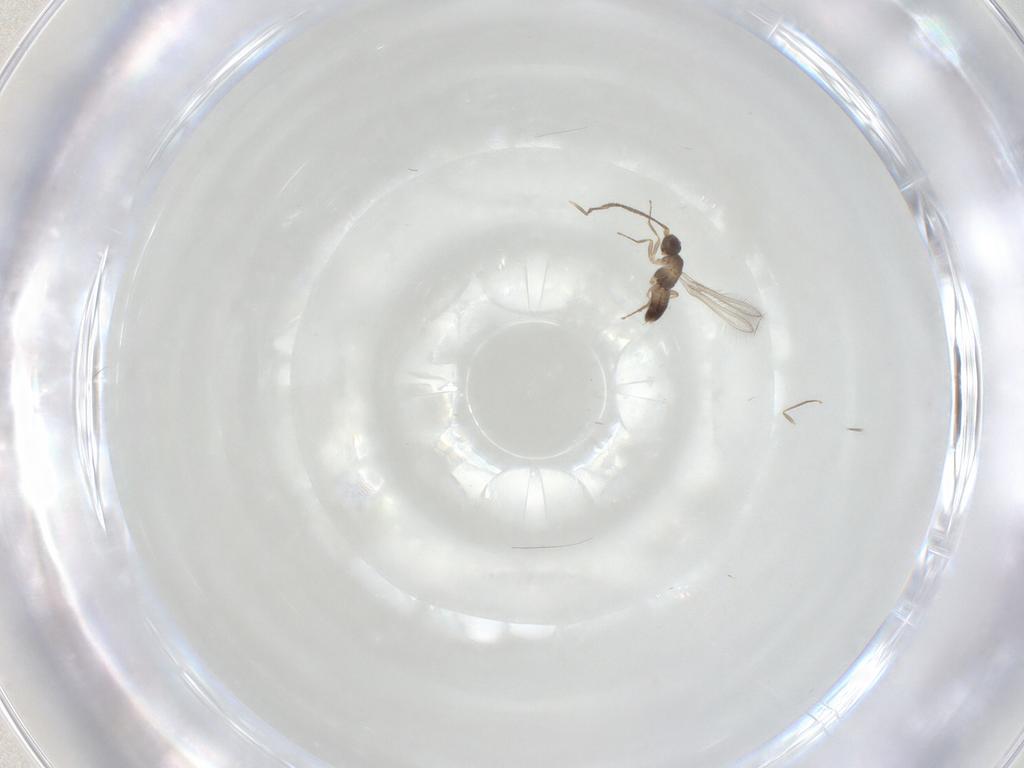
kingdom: Animalia
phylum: Arthropoda
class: Insecta
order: Hymenoptera
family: Mymaridae
